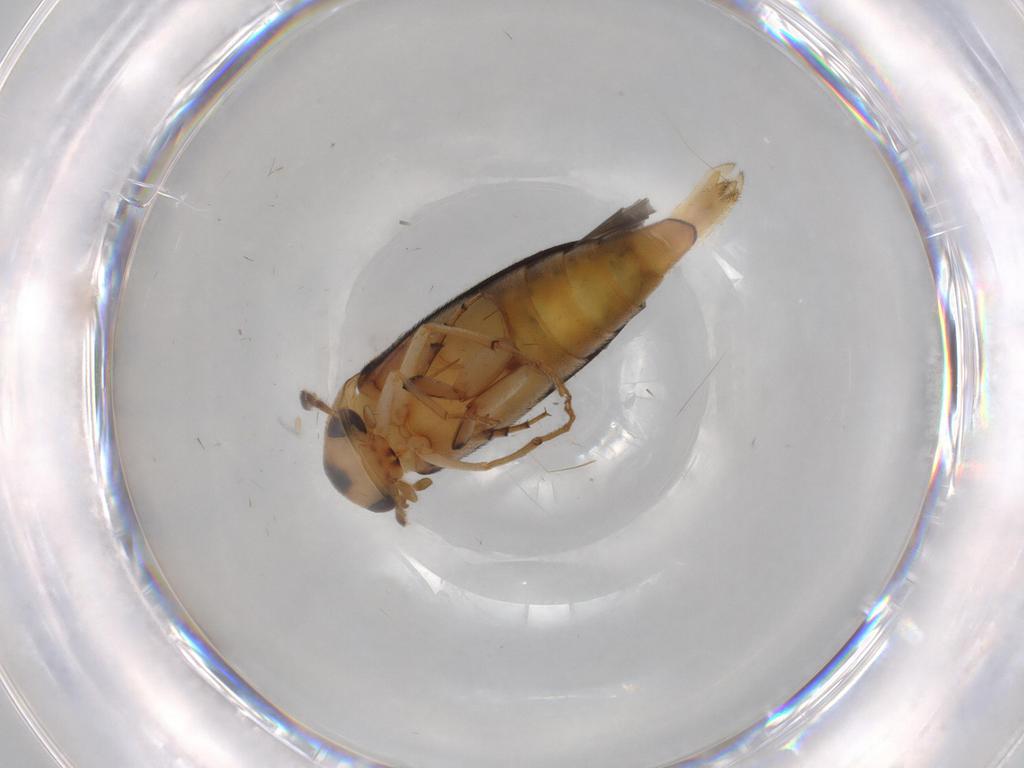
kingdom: Animalia
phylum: Arthropoda
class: Insecta
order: Coleoptera
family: Mordellidae
